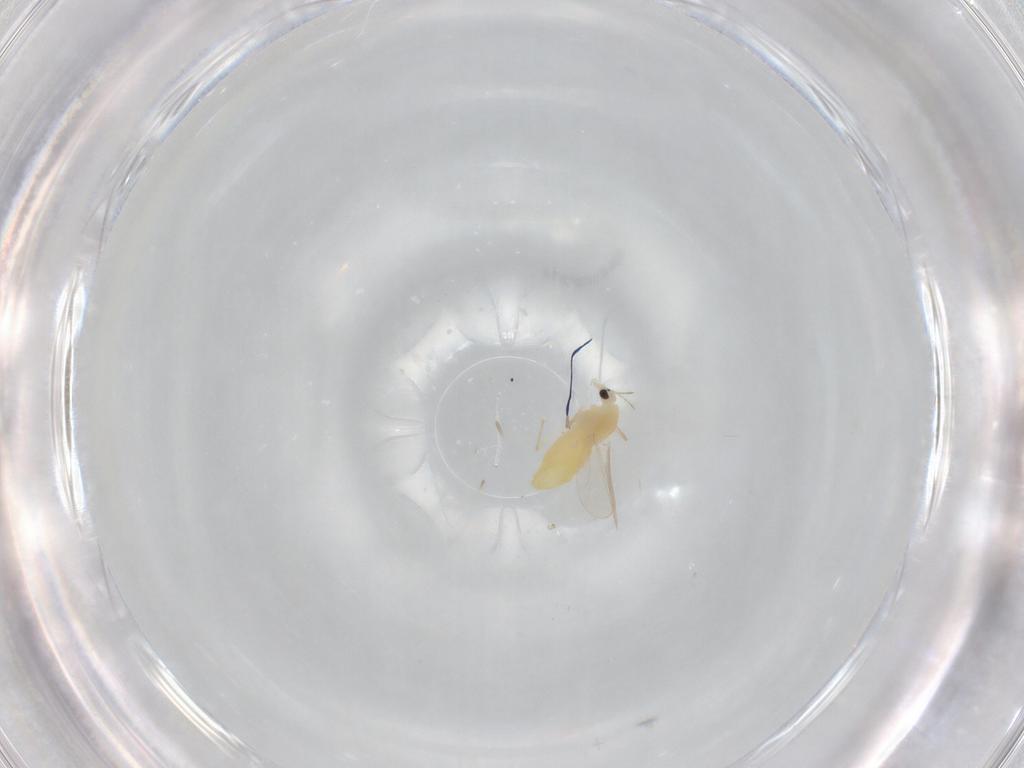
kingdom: Animalia
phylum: Arthropoda
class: Insecta
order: Diptera
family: Chironomidae
